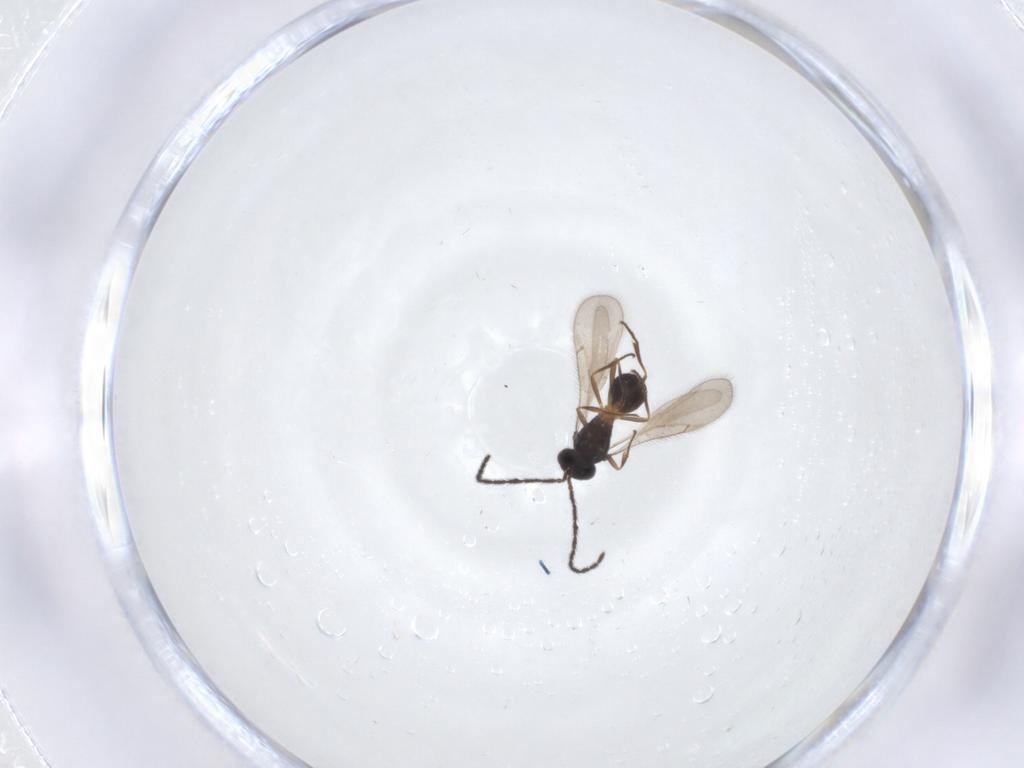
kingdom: Animalia
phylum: Arthropoda
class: Insecta
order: Hymenoptera
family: Scelionidae
